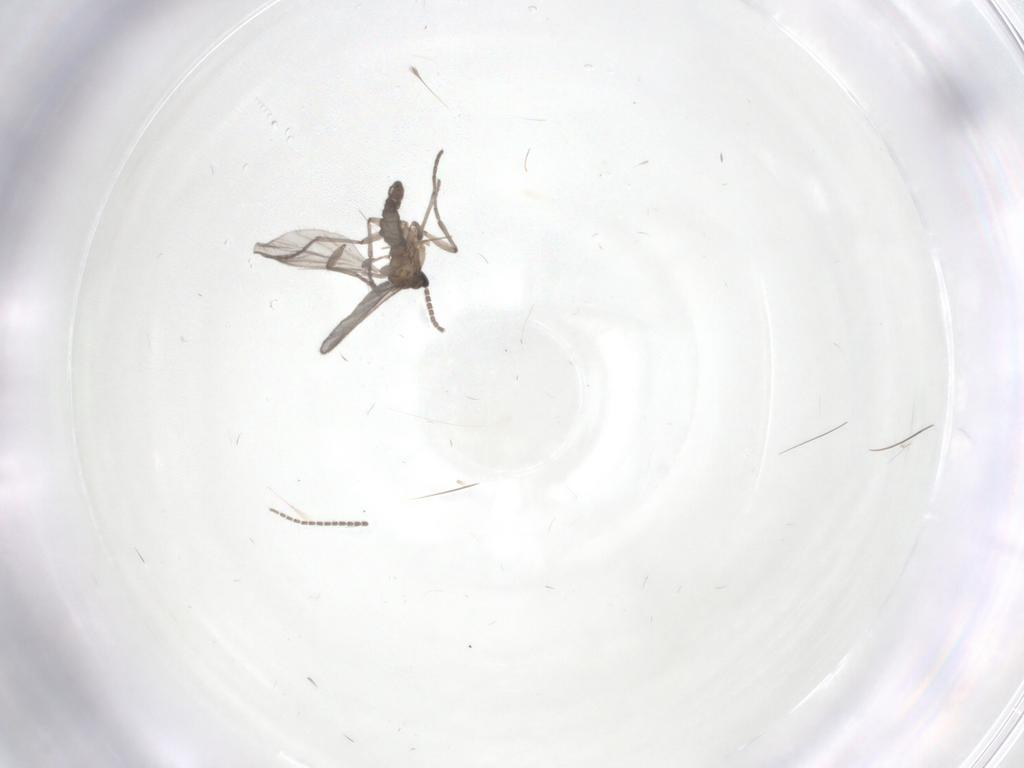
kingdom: Animalia
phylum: Arthropoda
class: Insecta
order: Diptera
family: Sciaridae
